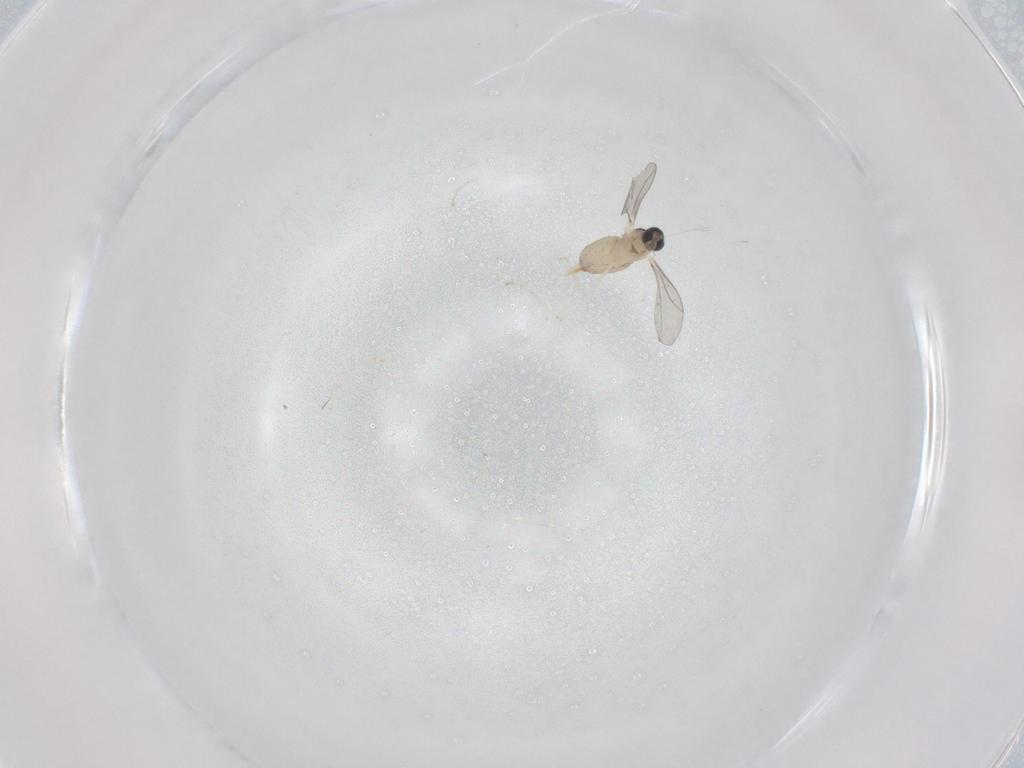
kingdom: Animalia
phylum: Arthropoda
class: Insecta
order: Diptera
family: Cecidomyiidae
